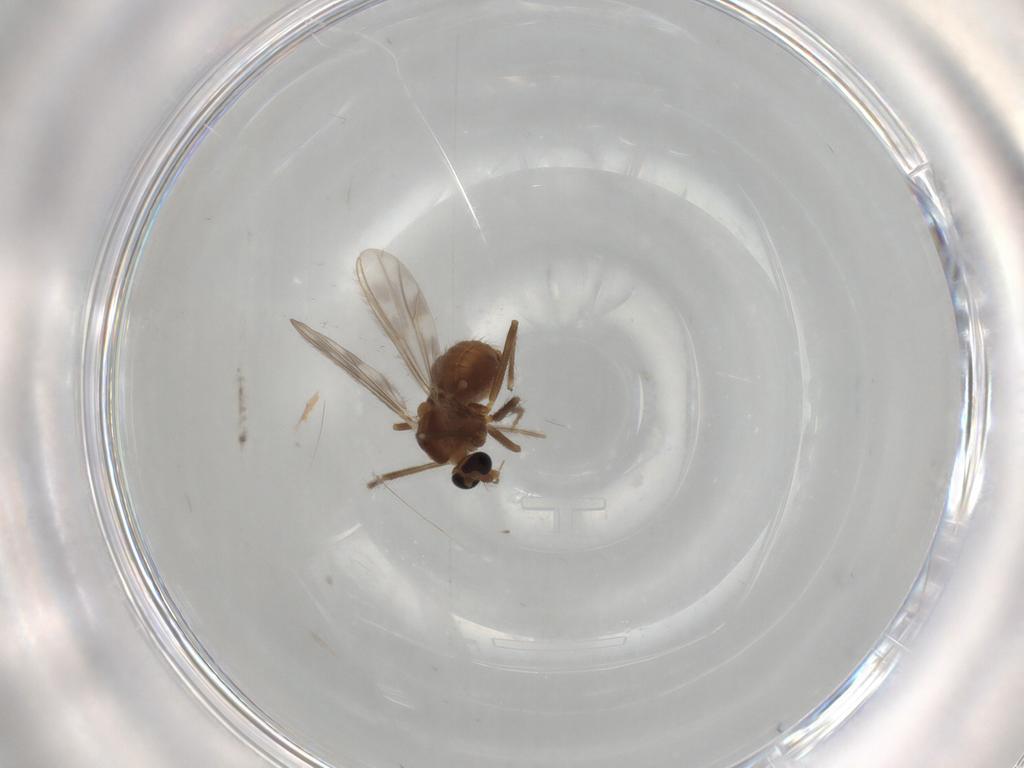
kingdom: Animalia
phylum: Arthropoda
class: Insecta
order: Diptera
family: Chironomidae
